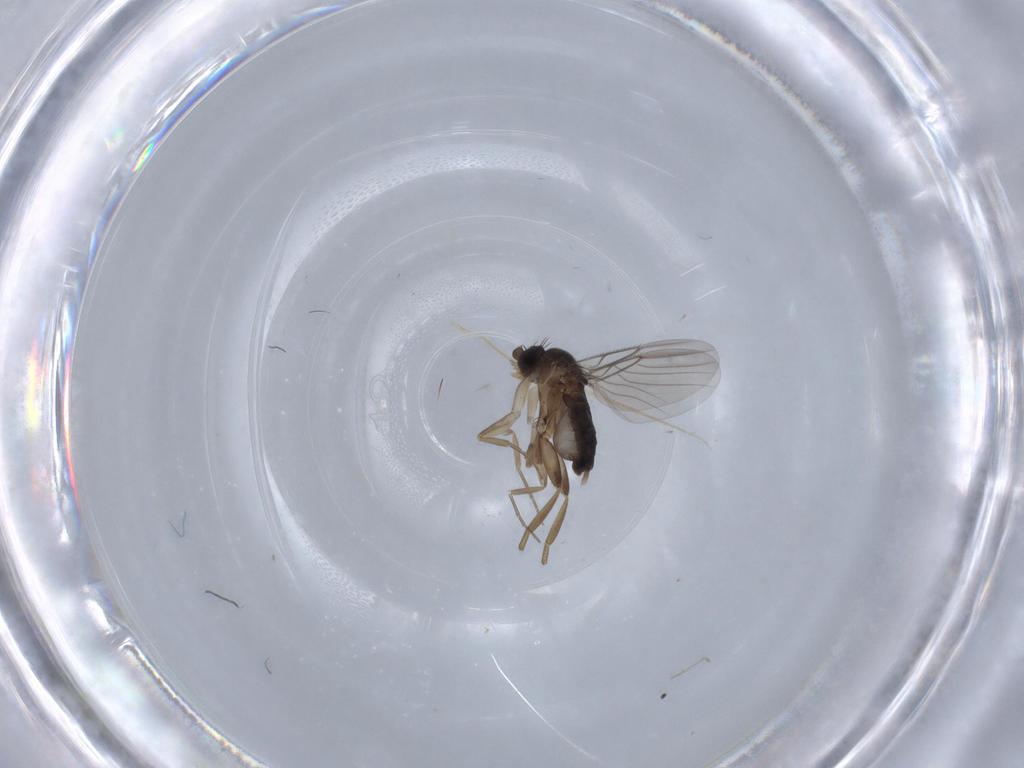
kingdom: Animalia
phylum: Arthropoda
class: Insecta
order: Diptera
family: Phoridae
